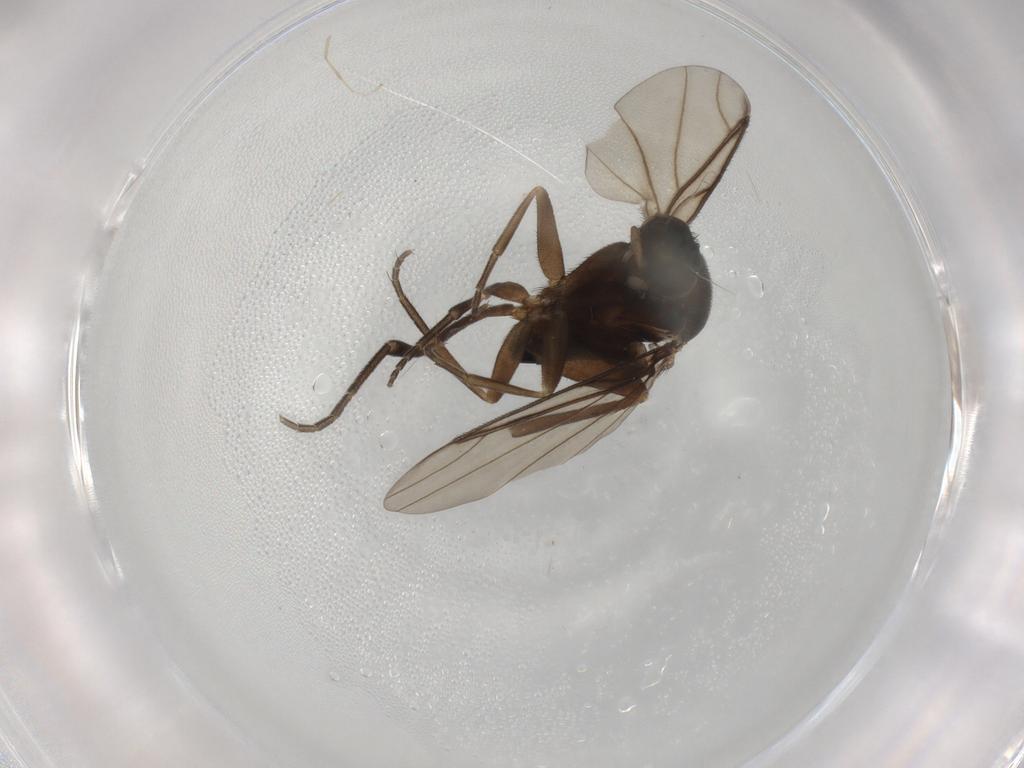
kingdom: Animalia
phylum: Arthropoda
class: Insecta
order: Diptera
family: Phoridae
